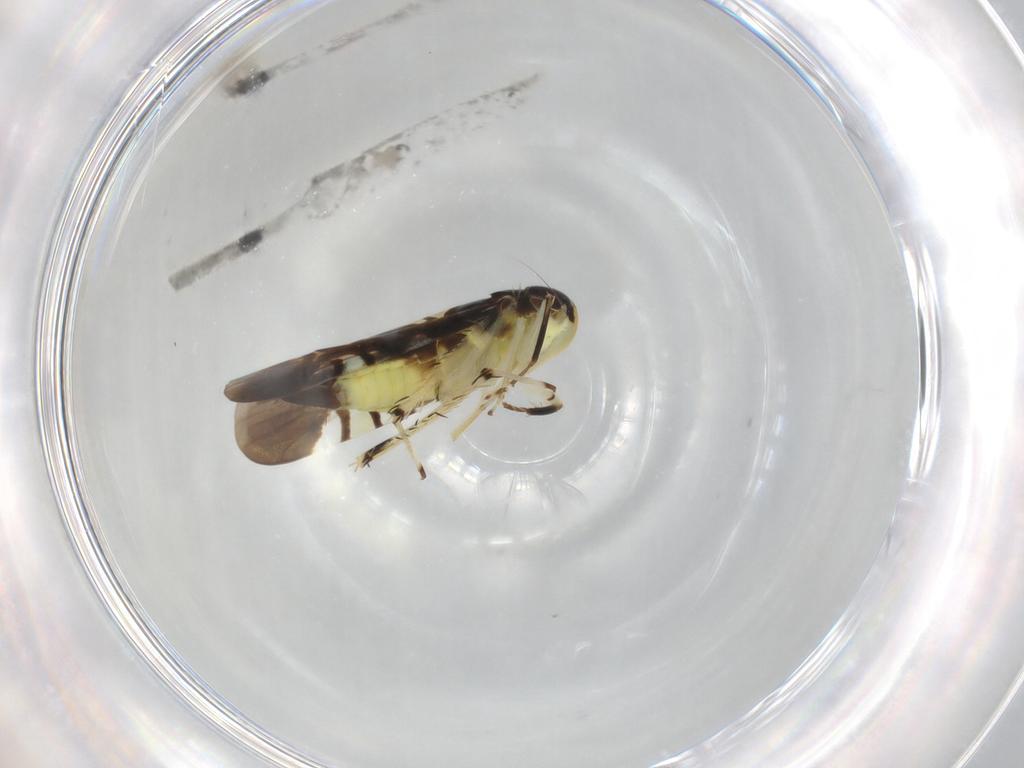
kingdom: Animalia
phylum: Arthropoda
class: Insecta
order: Hemiptera
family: Cicadellidae
